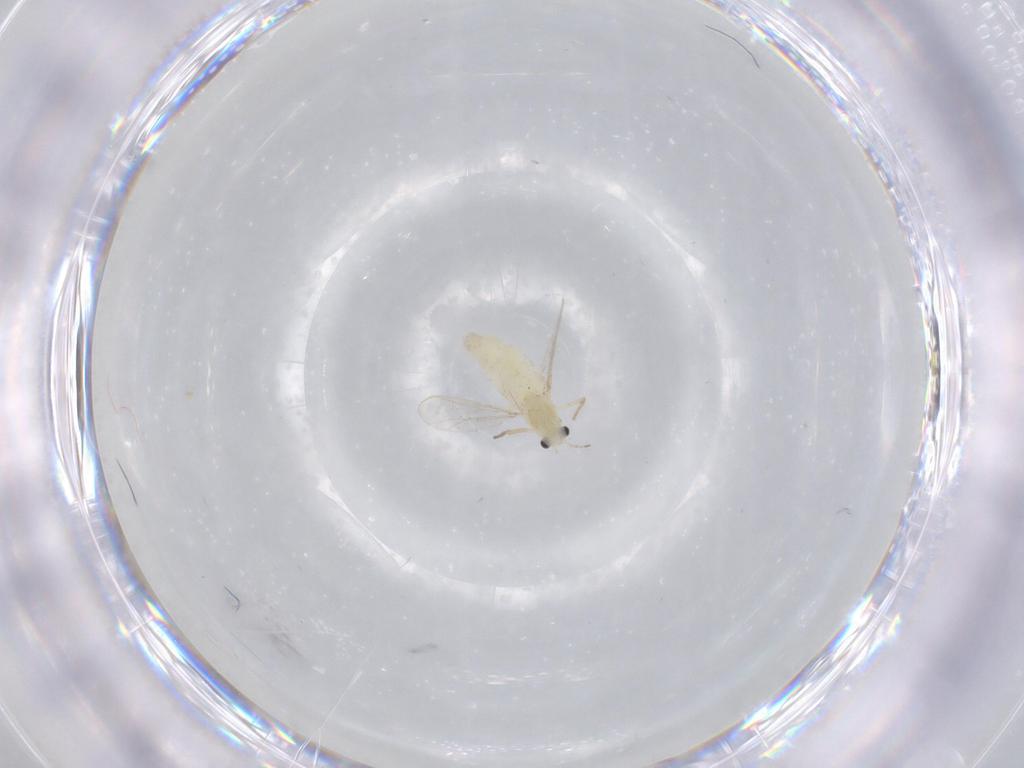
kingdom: Animalia
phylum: Arthropoda
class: Insecta
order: Diptera
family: Chironomidae
